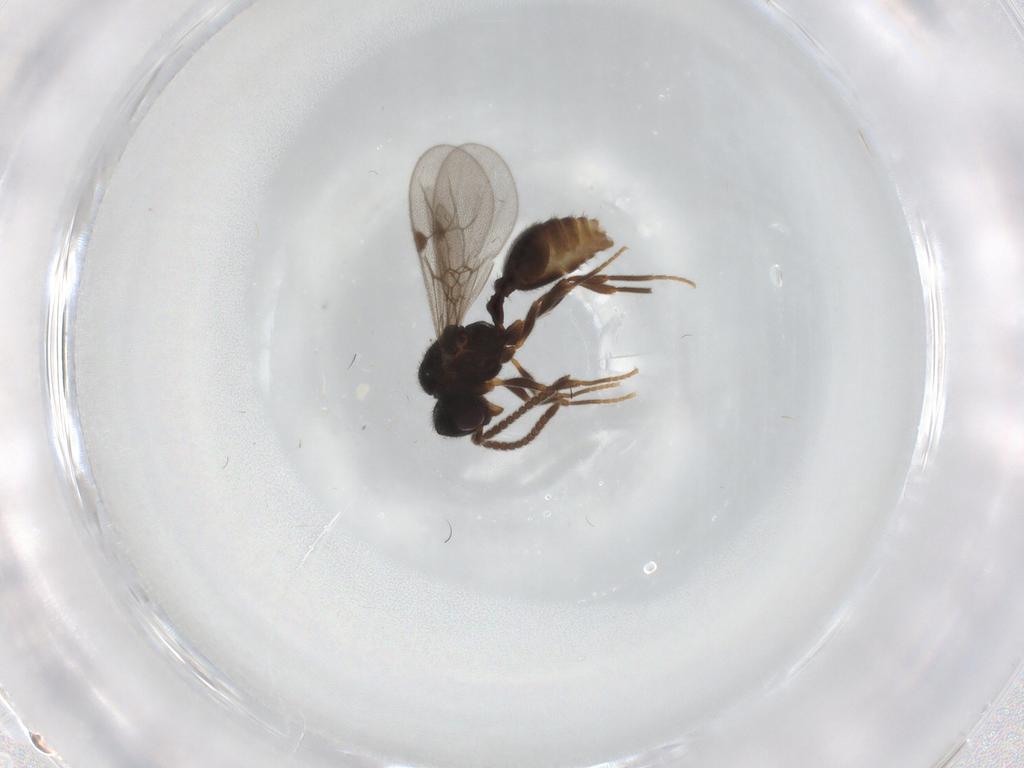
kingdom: Animalia
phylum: Arthropoda
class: Insecta
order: Hymenoptera
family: Formicidae
